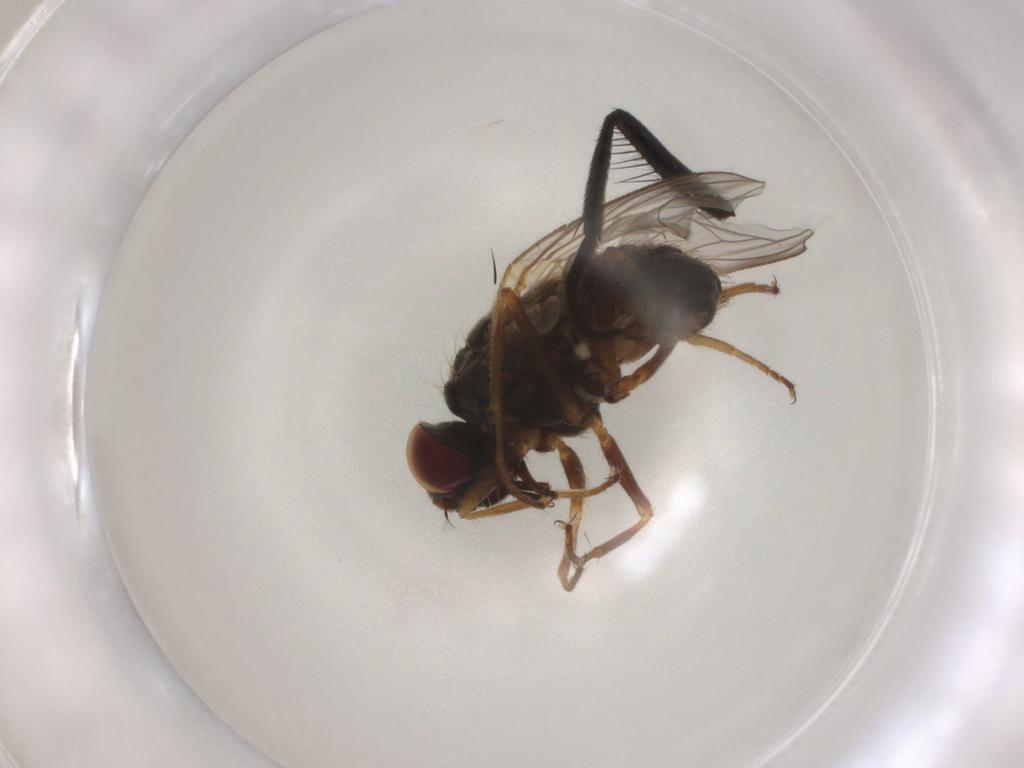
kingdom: Animalia
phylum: Arthropoda
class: Insecta
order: Diptera
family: Muscidae
